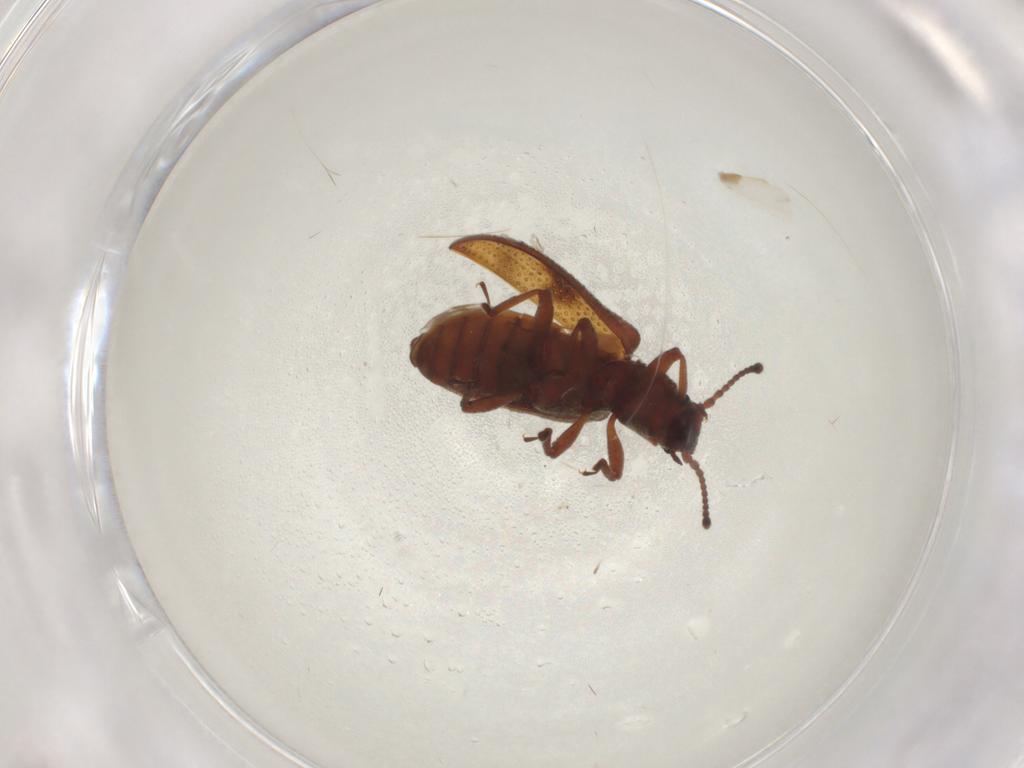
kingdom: Animalia
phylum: Arthropoda
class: Insecta
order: Coleoptera
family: Zopheridae
